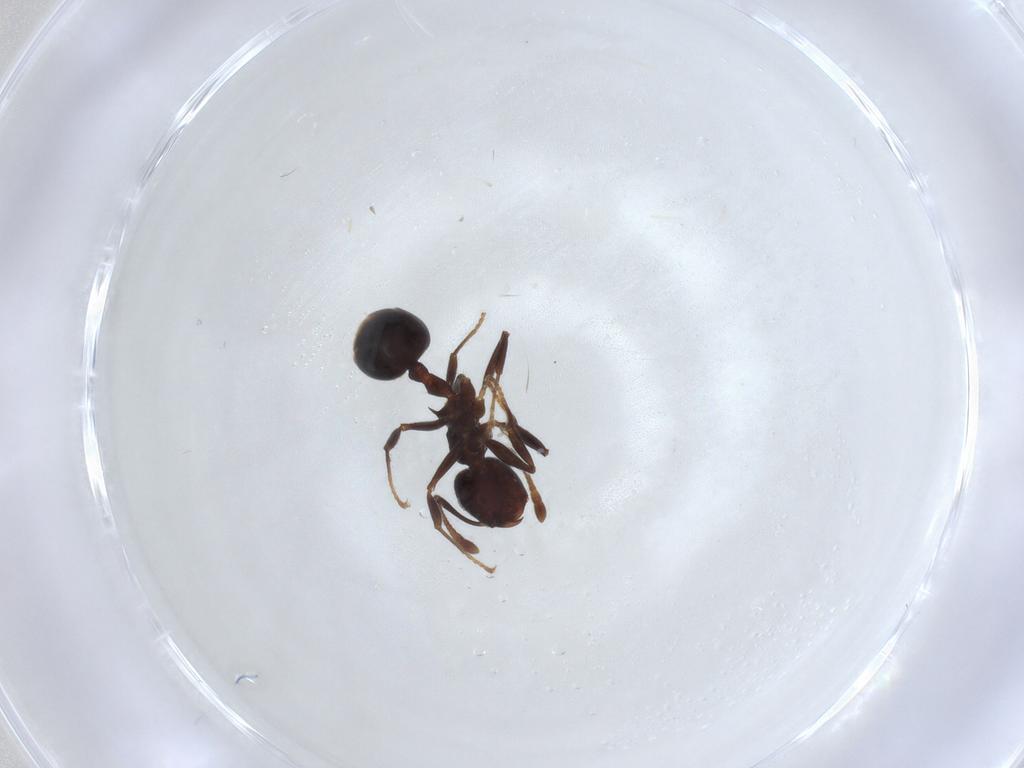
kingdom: Animalia
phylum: Arthropoda
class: Insecta
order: Hymenoptera
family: Formicidae
